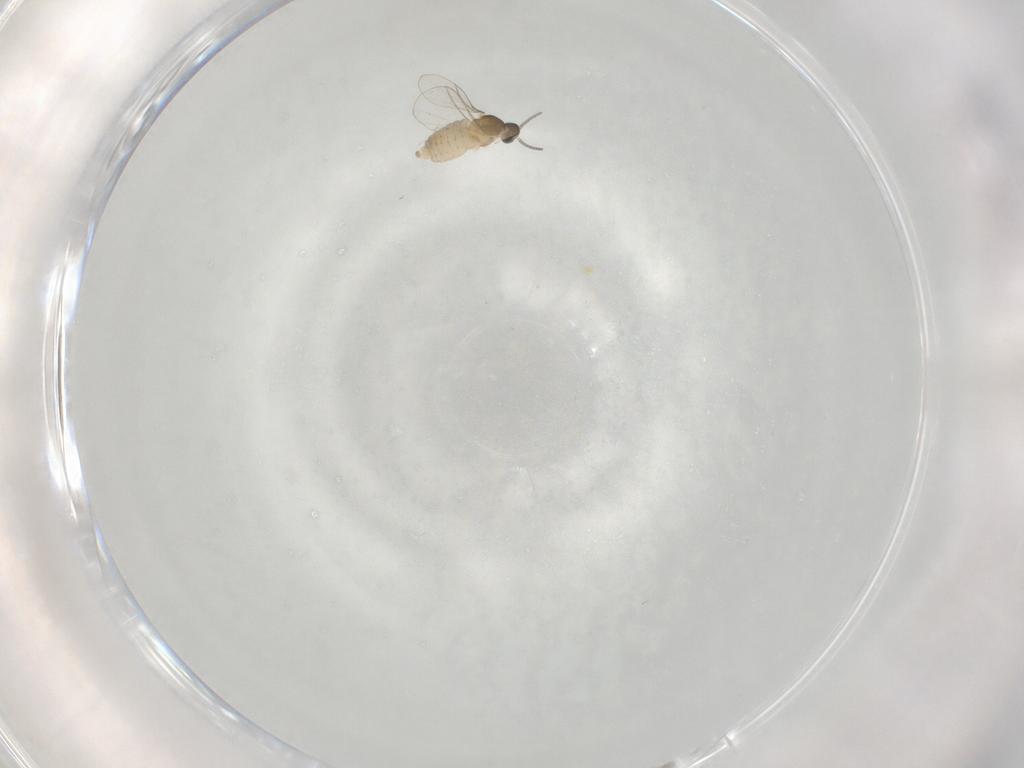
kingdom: Animalia
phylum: Arthropoda
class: Insecta
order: Diptera
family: Cecidomyiidae
